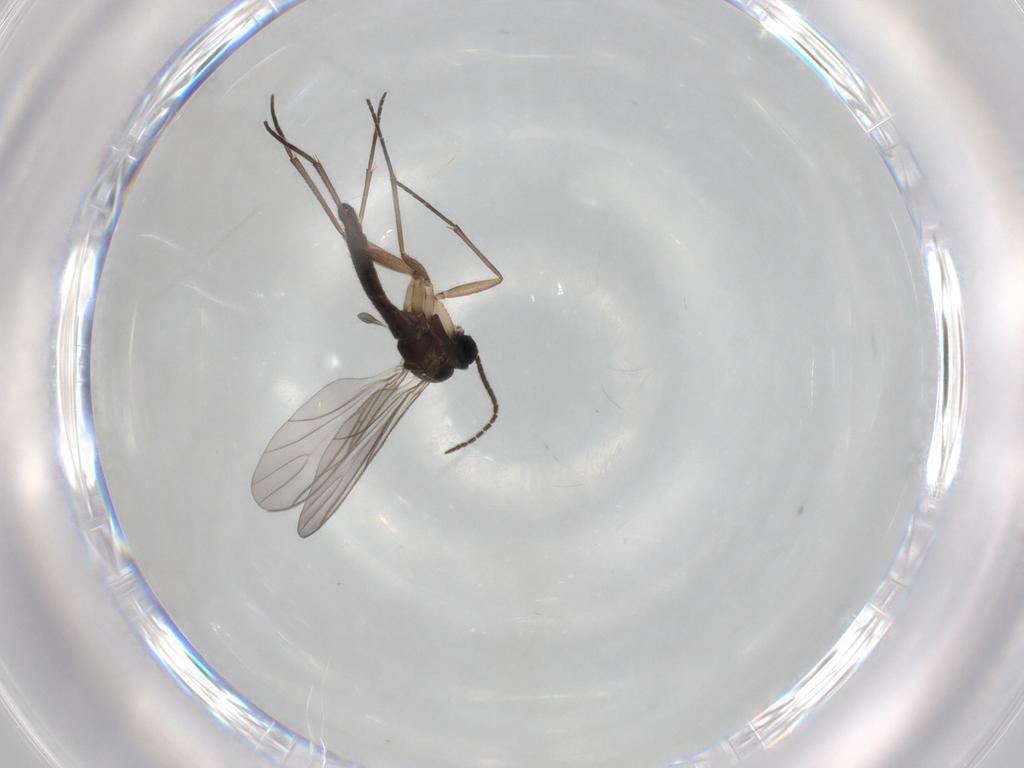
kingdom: Animalia
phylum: Arthropoda
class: Insecta
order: Diptera
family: Sciaridae
